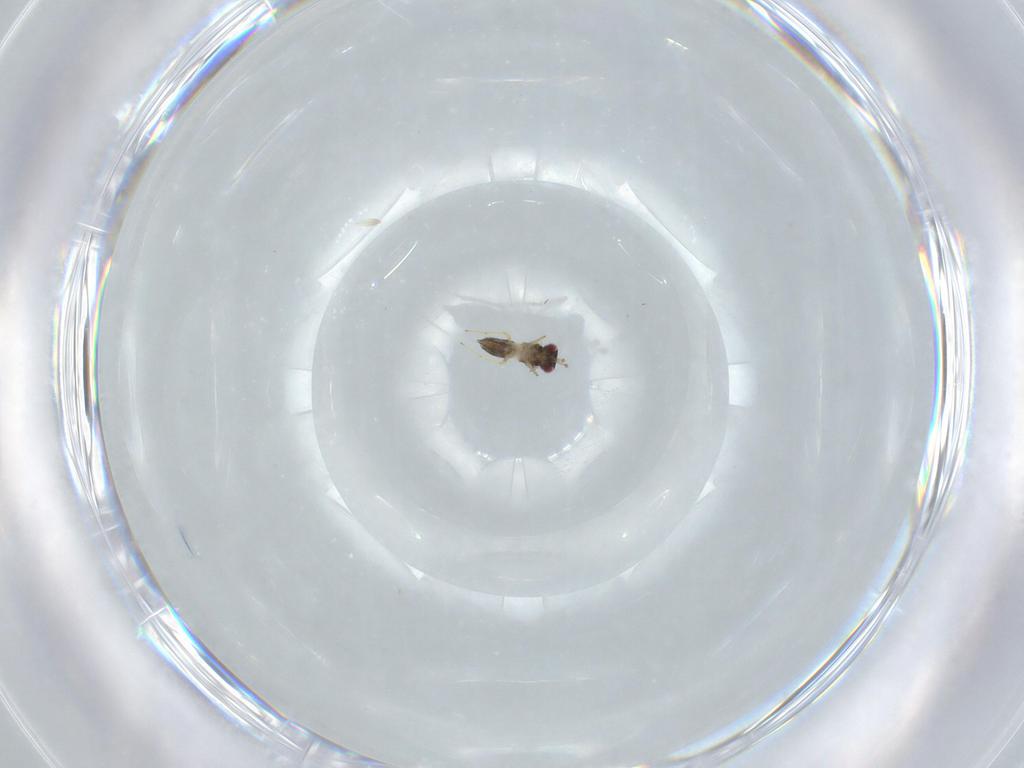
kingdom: Animalia
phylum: Arthropoda
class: Insecta
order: Hymenoptera
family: Eulophidae
